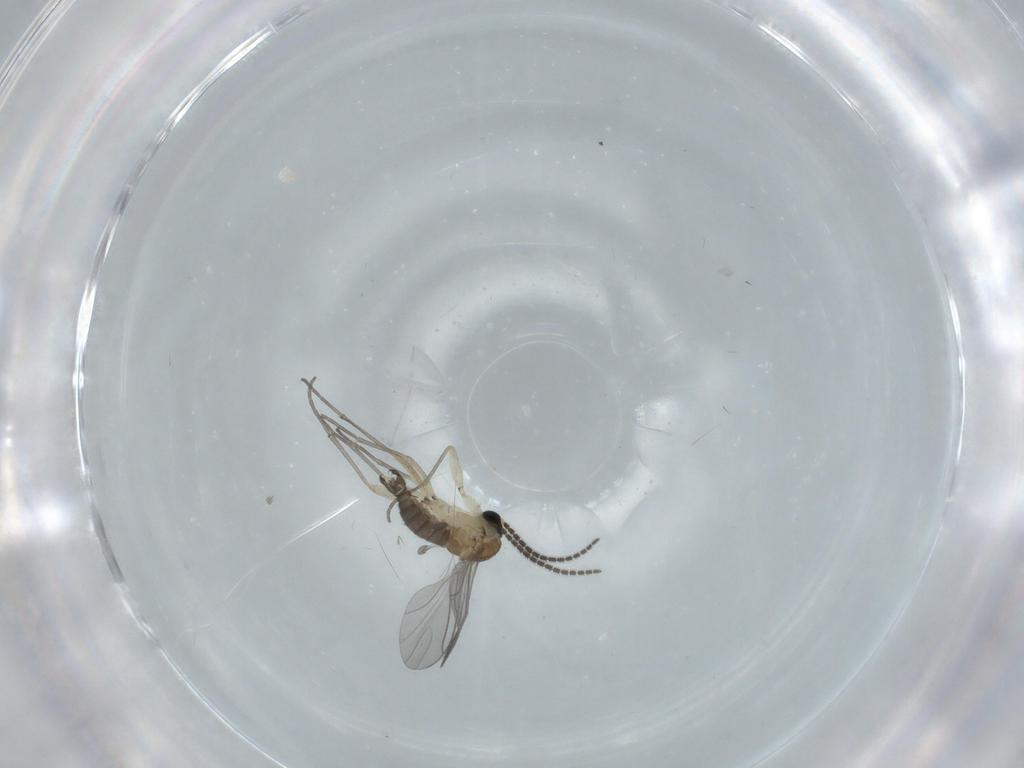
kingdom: Animalia
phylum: Arthropoda
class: Insecta
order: Diptera
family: Sciaridae
